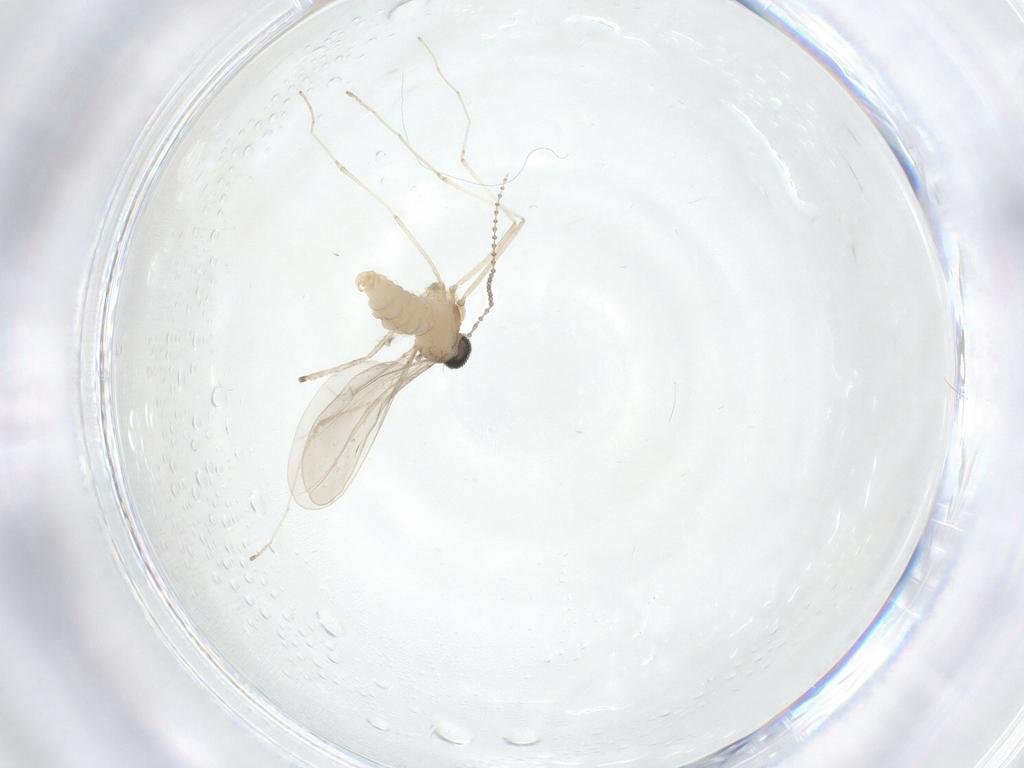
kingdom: Animalia
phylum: Arthropoda
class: Insecta
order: Diptera
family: Cecidomyiidae
